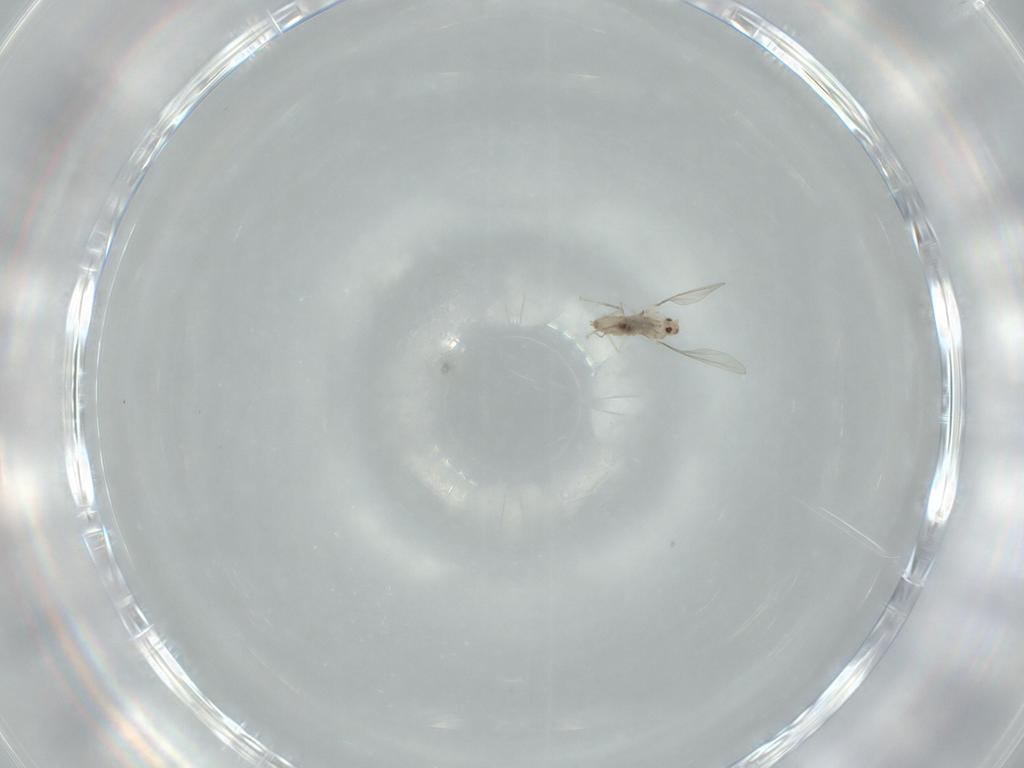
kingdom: Animalia
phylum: Arthropoda
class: Insecta
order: Diptera
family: Cecidomyiidae
